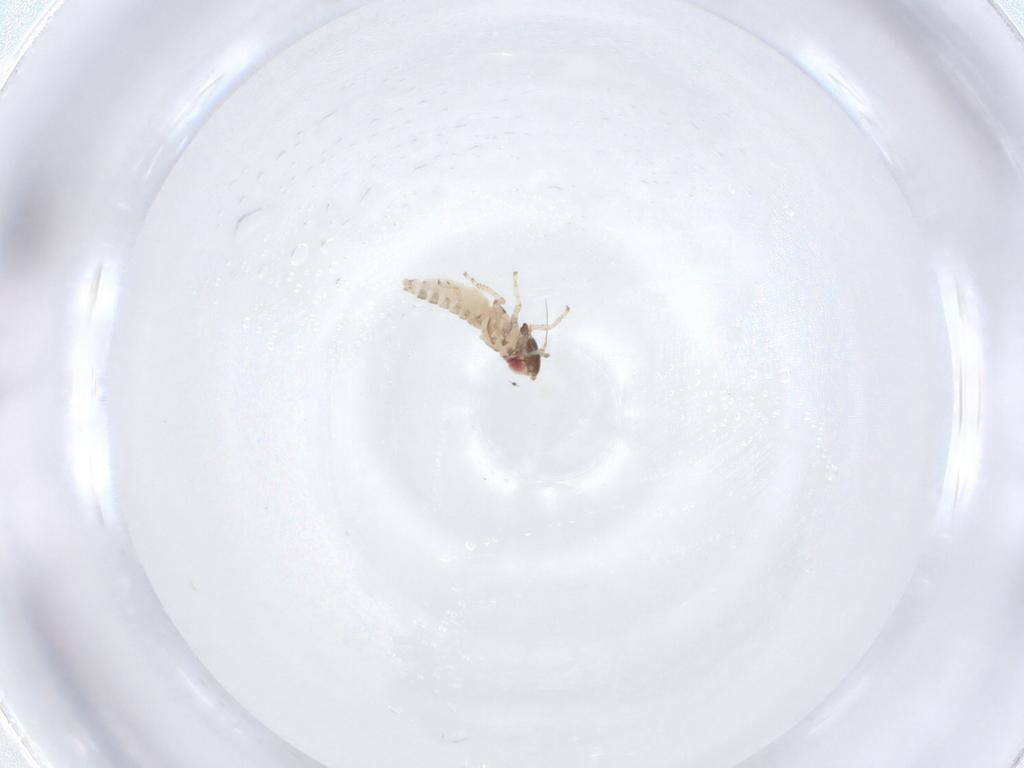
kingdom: Animalia
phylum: Arthropoda
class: Insecta
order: Hemiptera
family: Cicadellidae
